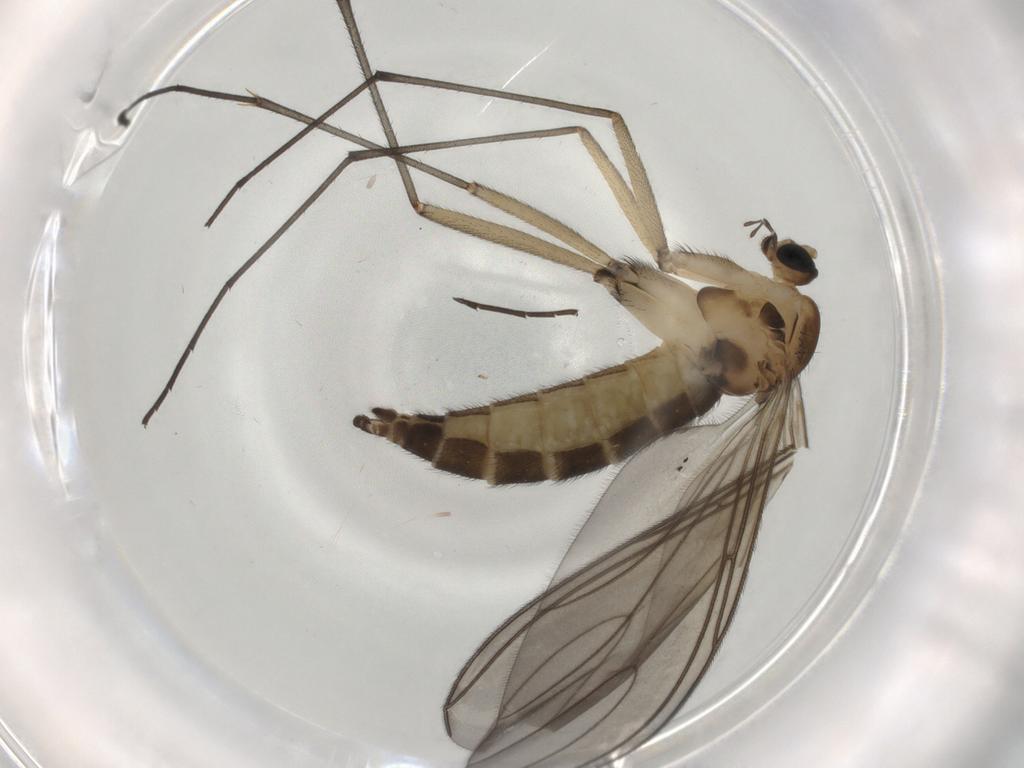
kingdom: Animalia
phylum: Arthropoda
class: Insecta
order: Diptera
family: Sciaridae
